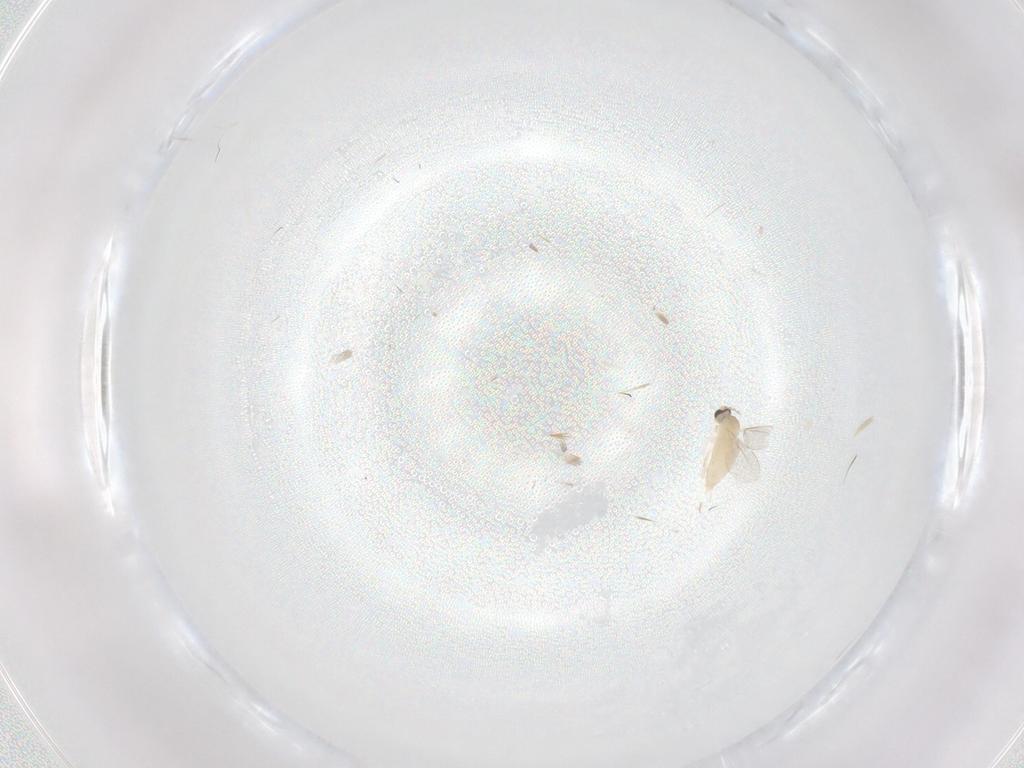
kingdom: Animalia
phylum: Arthropoda
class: Insecta
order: Diptera
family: Cecidomyiidae
